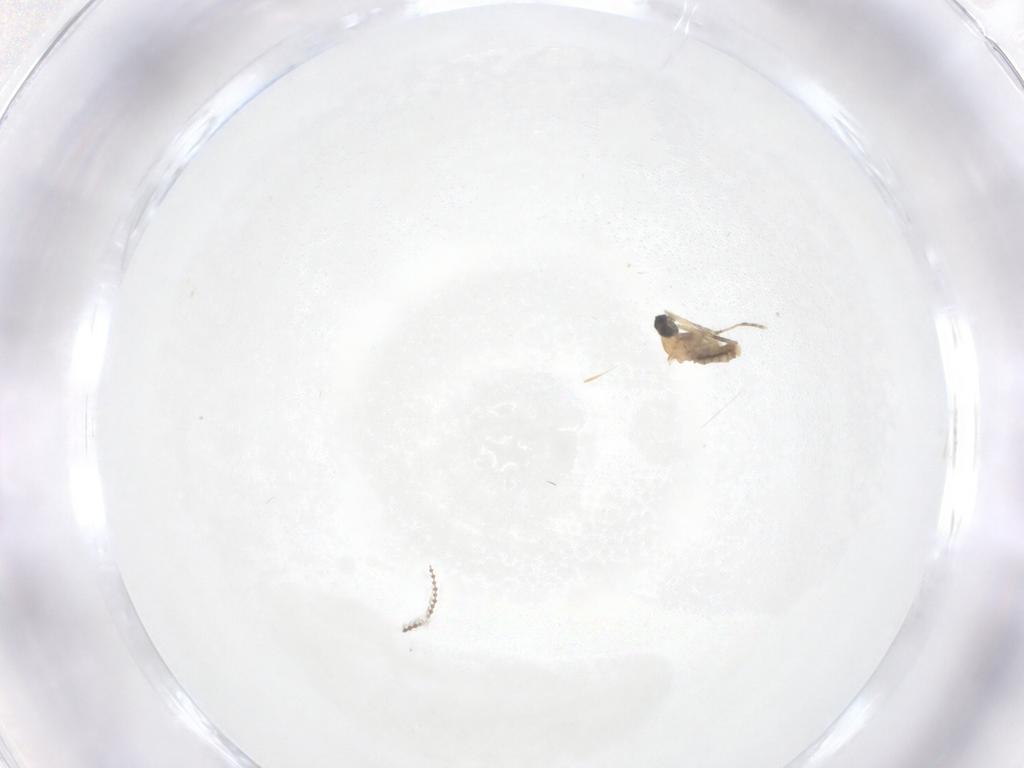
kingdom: Animalia
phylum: Arthropoda
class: Insecta
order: Diptera
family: Cecidomyiidae
